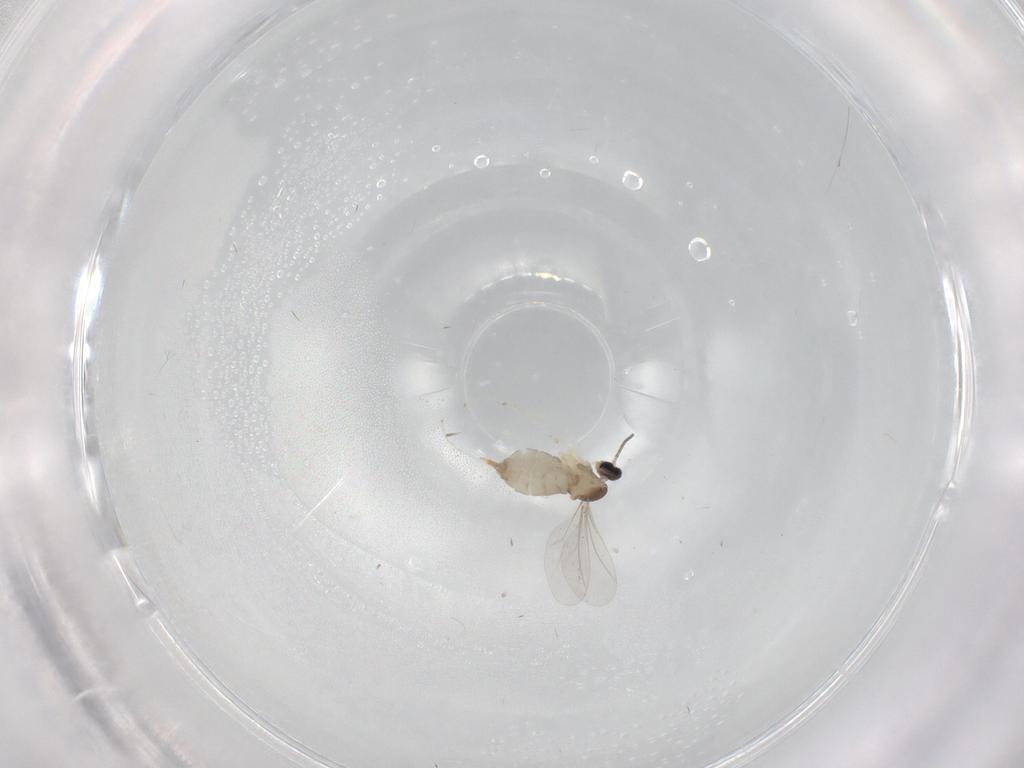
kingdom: Animalia
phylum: Arthropoda
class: Insecta
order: Diptera
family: Cecidomyiidae
